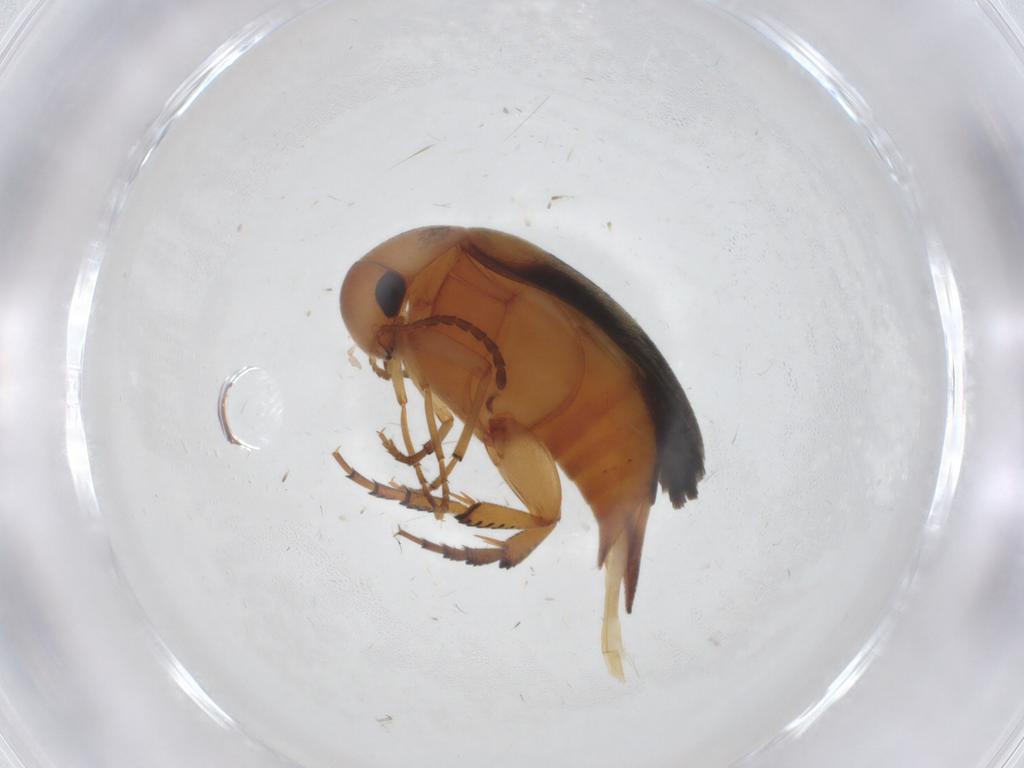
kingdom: Animalia
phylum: Arthropoda
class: Insecta
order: Coleoptera
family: Mordellidae
